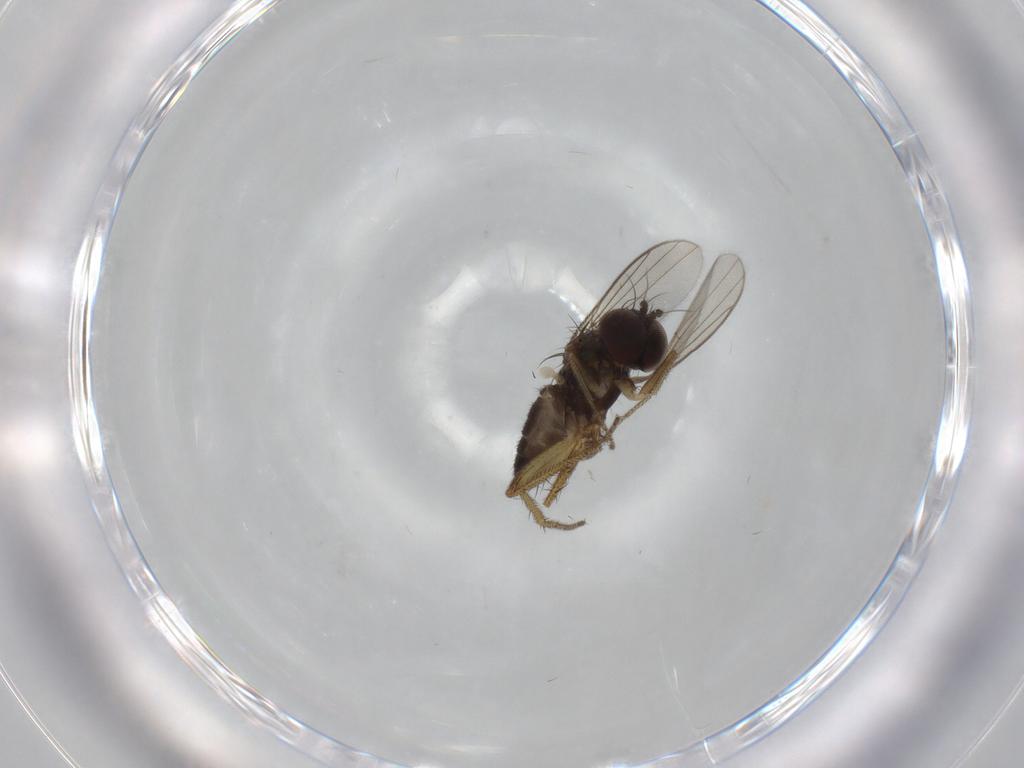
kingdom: Animalia
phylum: Arthropoda
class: Insecta
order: Diptera
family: Dolichopodidae
